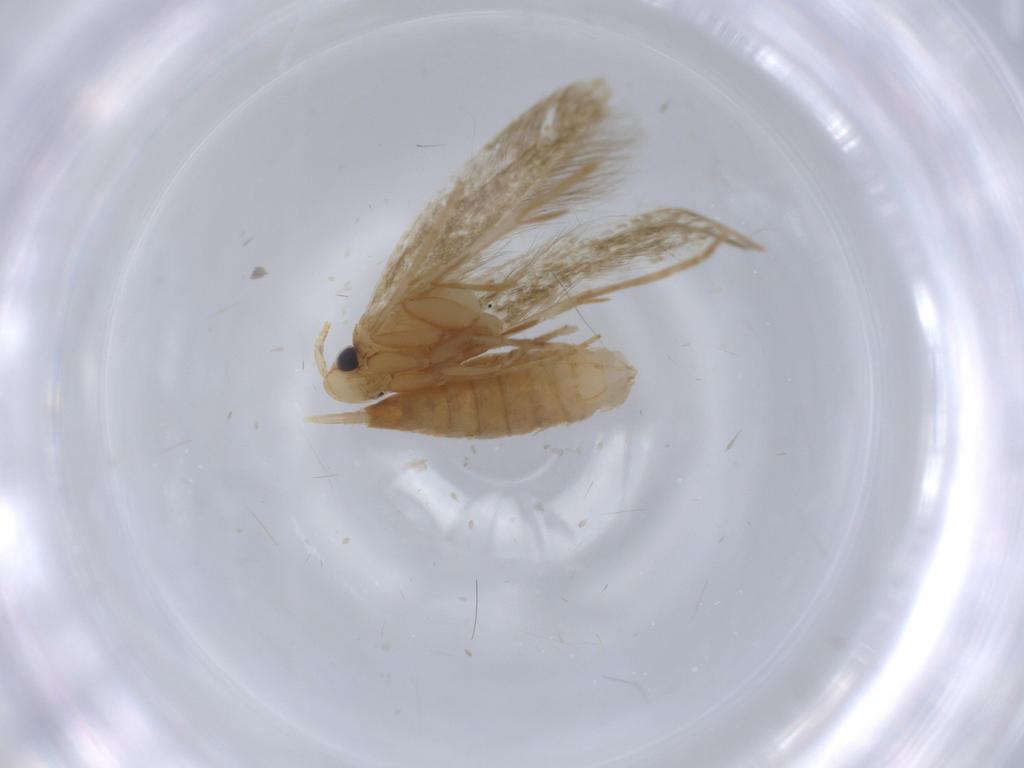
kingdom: Animalia
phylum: Arthropoda
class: Insecta
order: Lepidoptera
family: Tineidae
